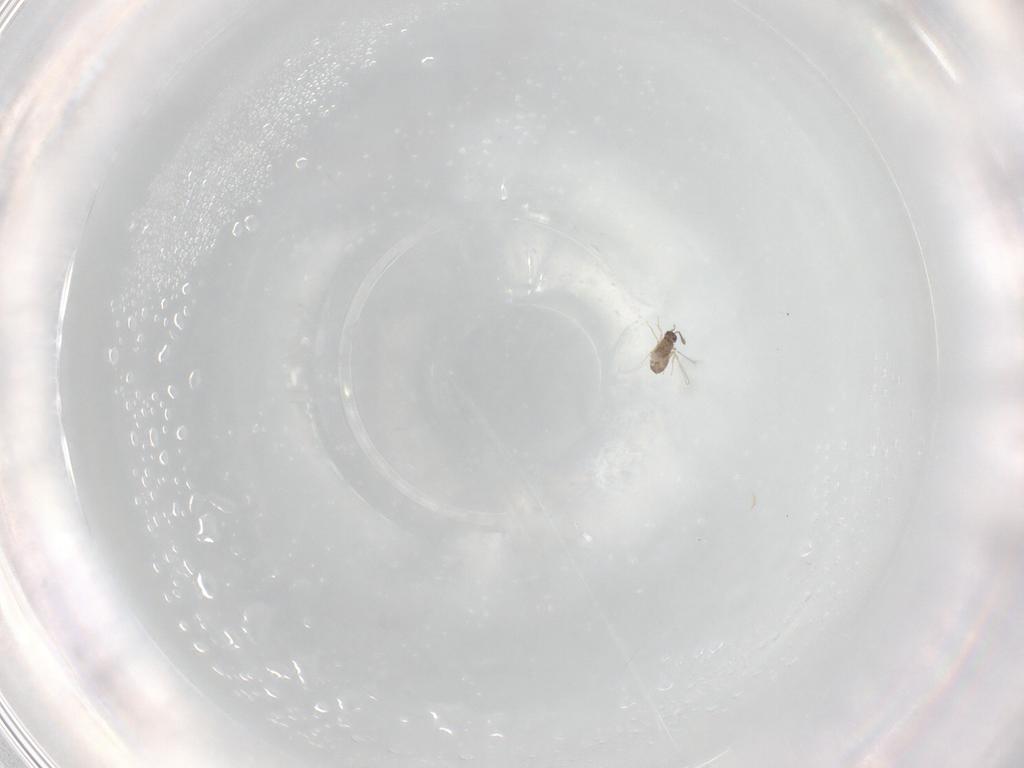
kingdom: Animalia
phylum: Arthropoda
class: Insecta
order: Hymenoptera
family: Mymaridae
